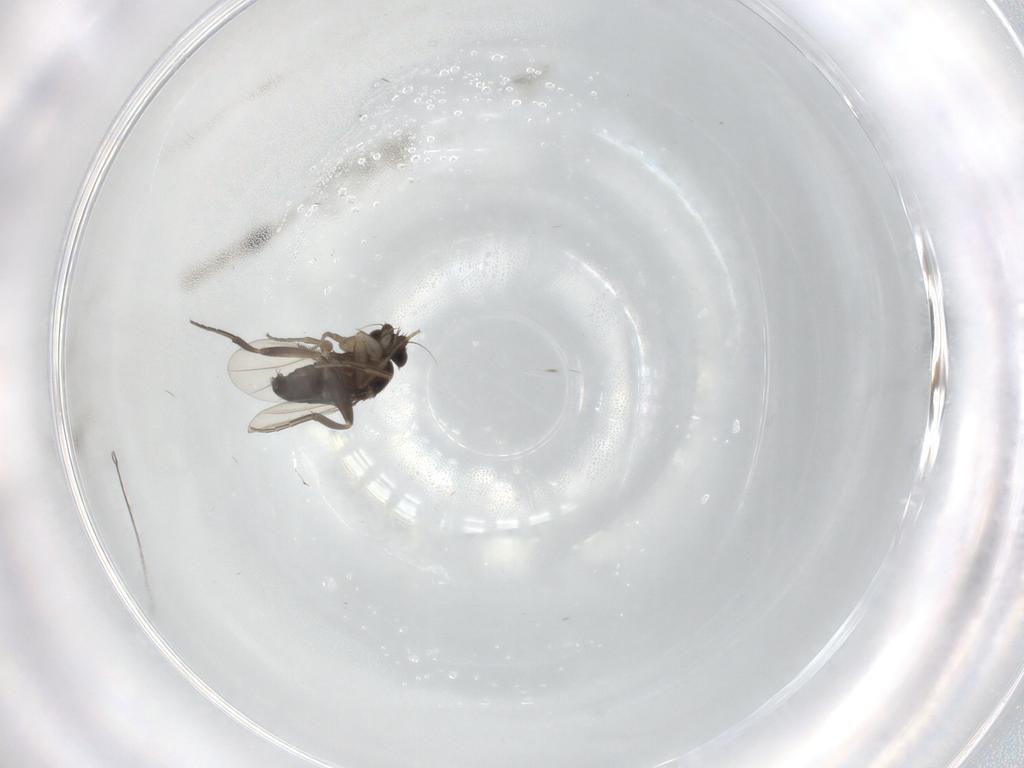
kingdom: Animalia
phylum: Arthropoda
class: Insecta
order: Diptera
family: Phoridae
